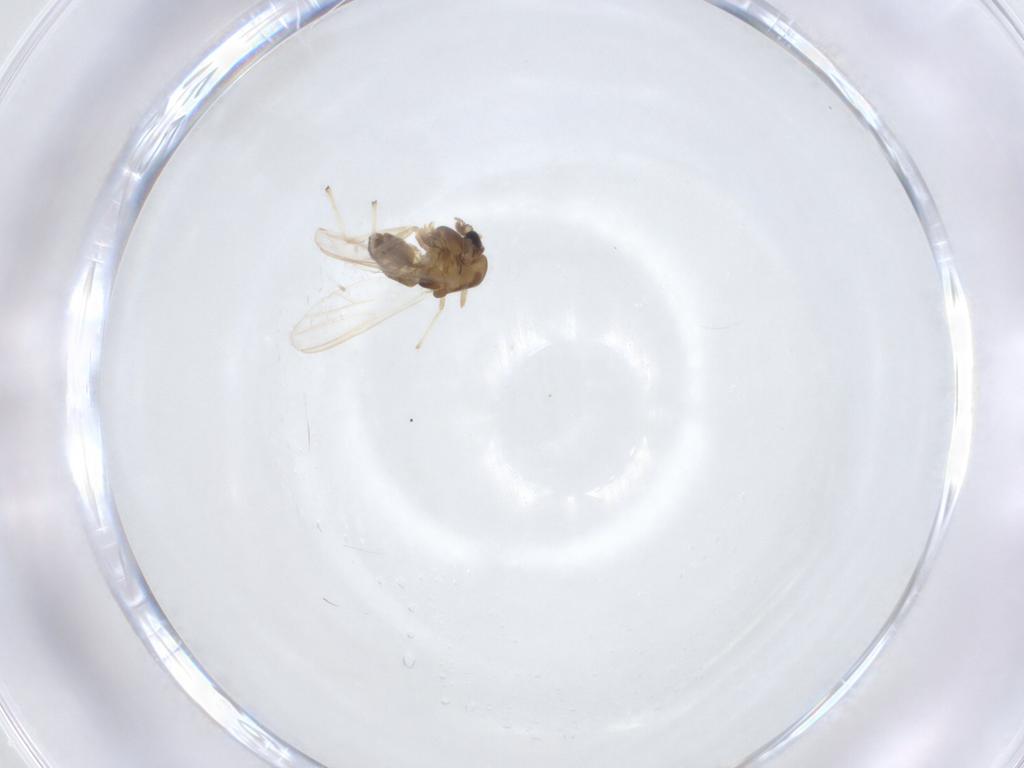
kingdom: Animalia
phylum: Arthropoda
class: Insecta
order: Diptera
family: Chironomidae
